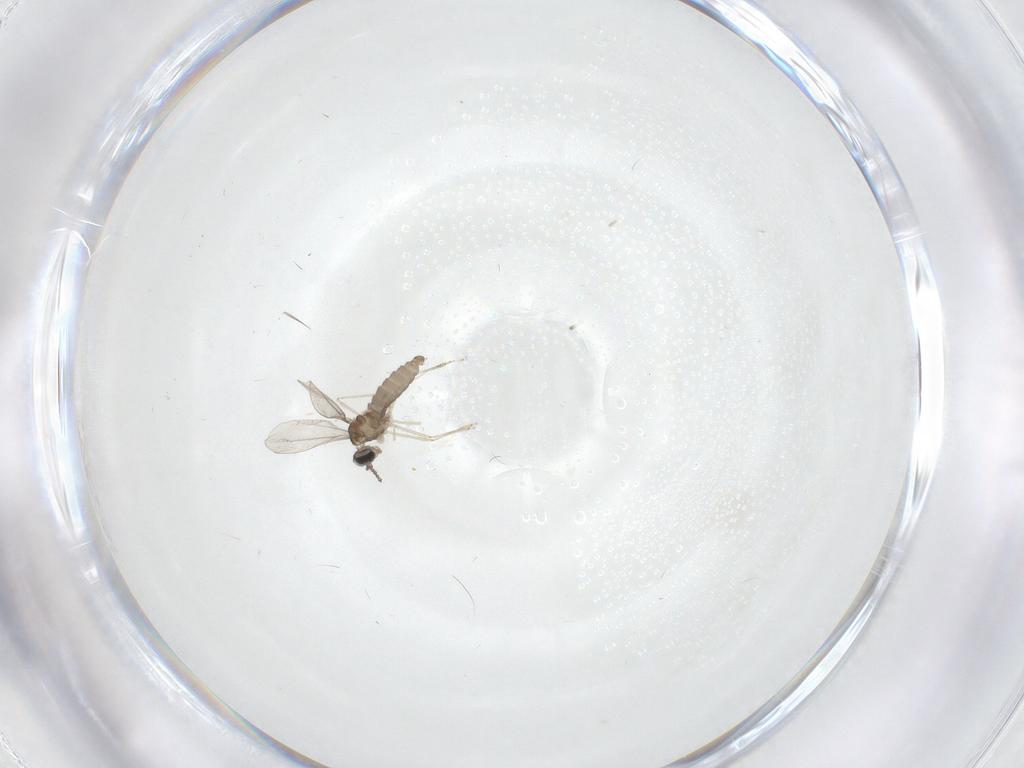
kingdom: Animalia
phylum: Arthropoda
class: Insecta
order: Diptera
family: Cecidomyiidae
